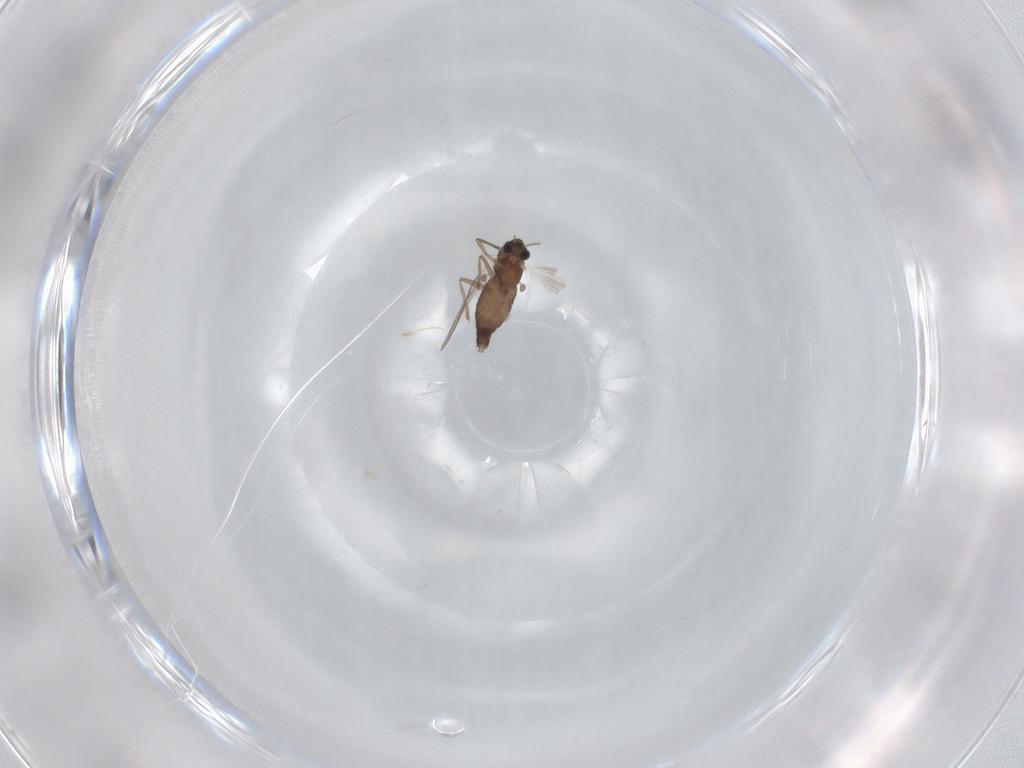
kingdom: Animalia
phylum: Arthropoda
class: Insecta
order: Diptera
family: Chironomidae
